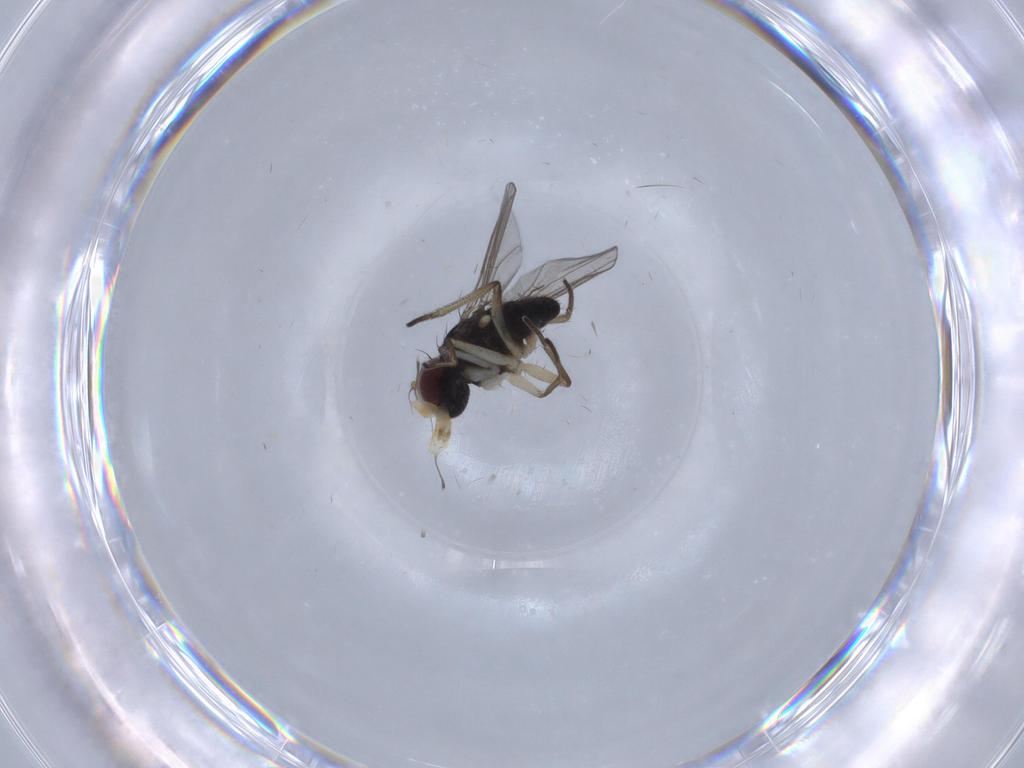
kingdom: Animalia
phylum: Arthropoda
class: Insecta
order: Diptera
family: Dolichopodidae
